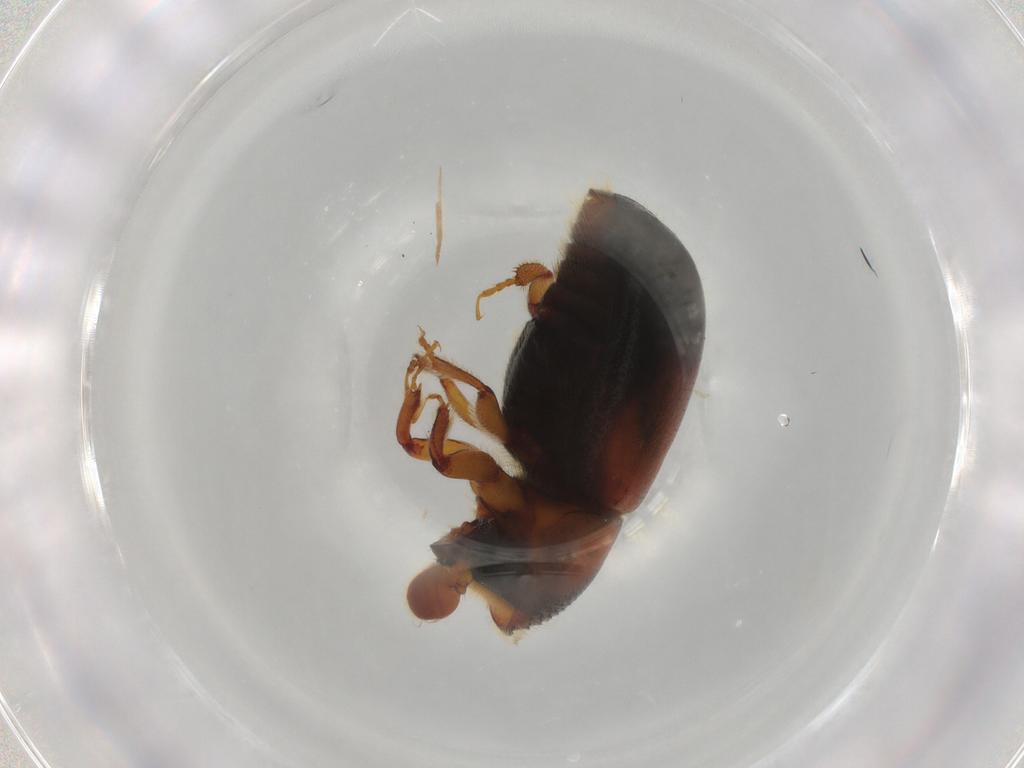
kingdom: Animalia
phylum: Arthropoda
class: Insecta
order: Coleoptera
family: Curculionidae
